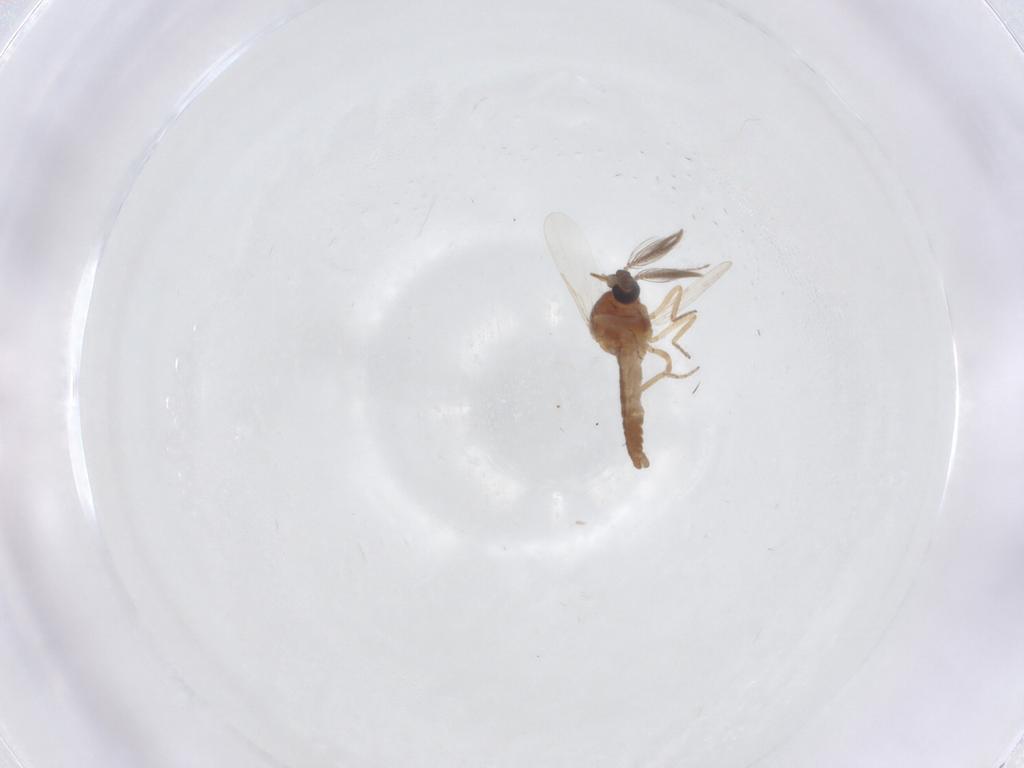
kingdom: Animalia
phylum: Arthropoda
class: Insecta
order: Diptera
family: Ceratopogonidae
